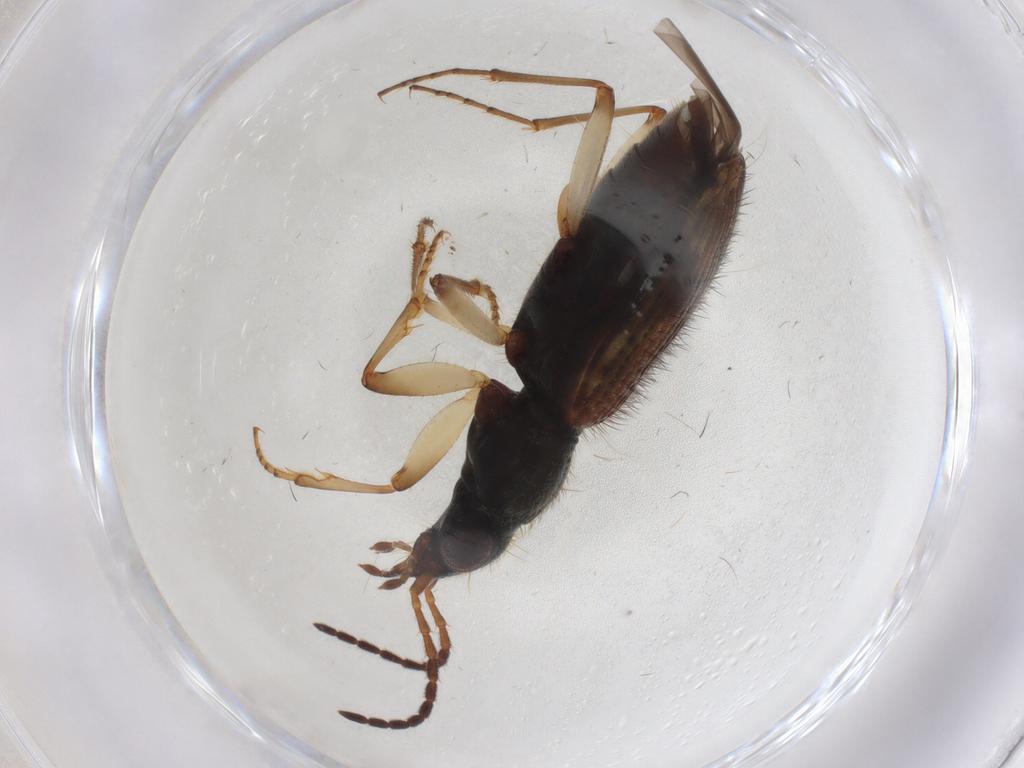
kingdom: Animalia
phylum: Arthropoda
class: Insecta
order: Coleoptera
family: Carabidae
